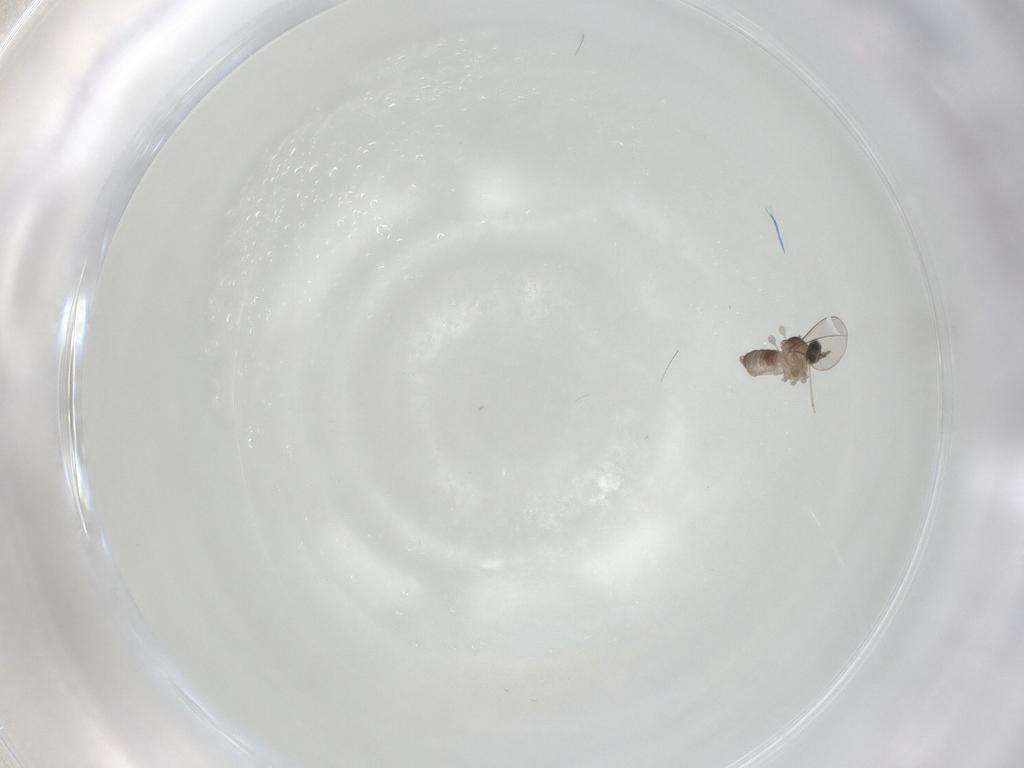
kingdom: Animalia
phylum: Arthropoda
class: Insecta
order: Diptera
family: Cecidomyiidae
